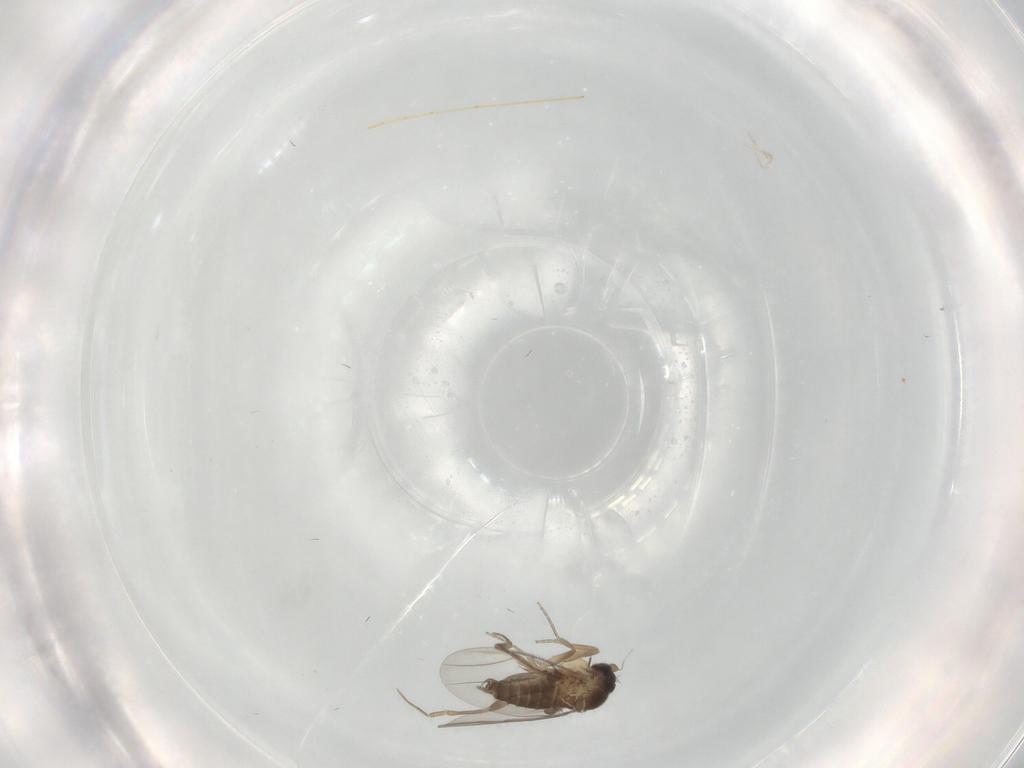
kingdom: Animalia
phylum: Arthropoda
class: Insecta
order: Diptera
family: Phoridae
